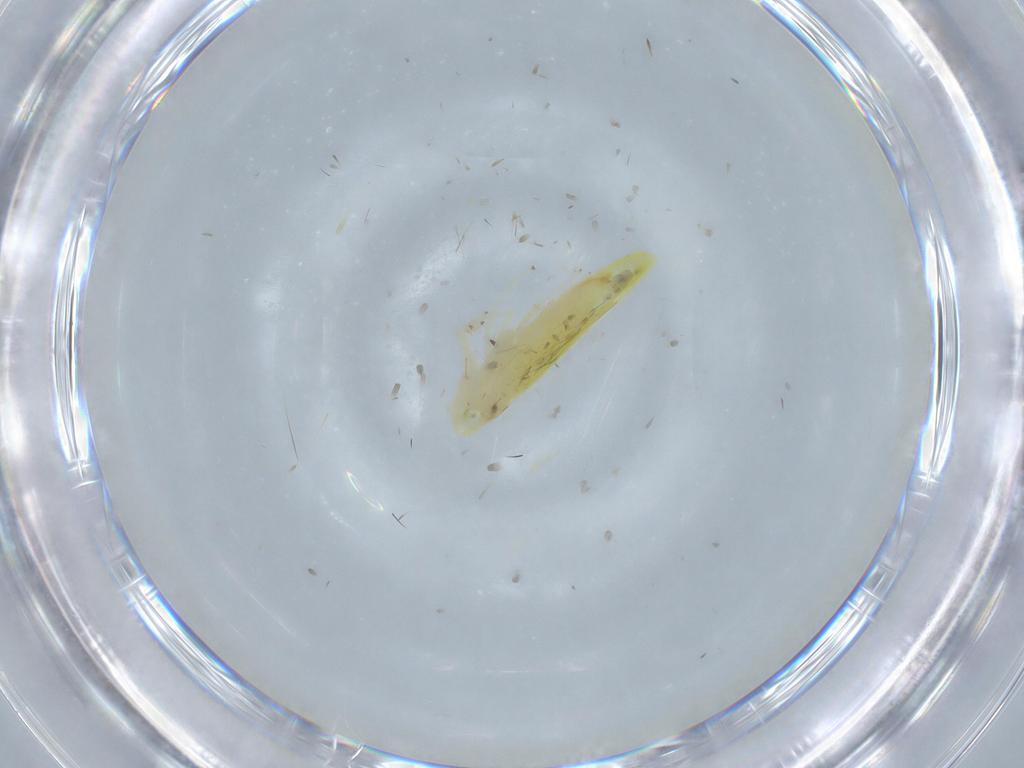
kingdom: Animalia
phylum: Arthropoda
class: Insecta
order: Hemiptera
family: Cicadellidae
